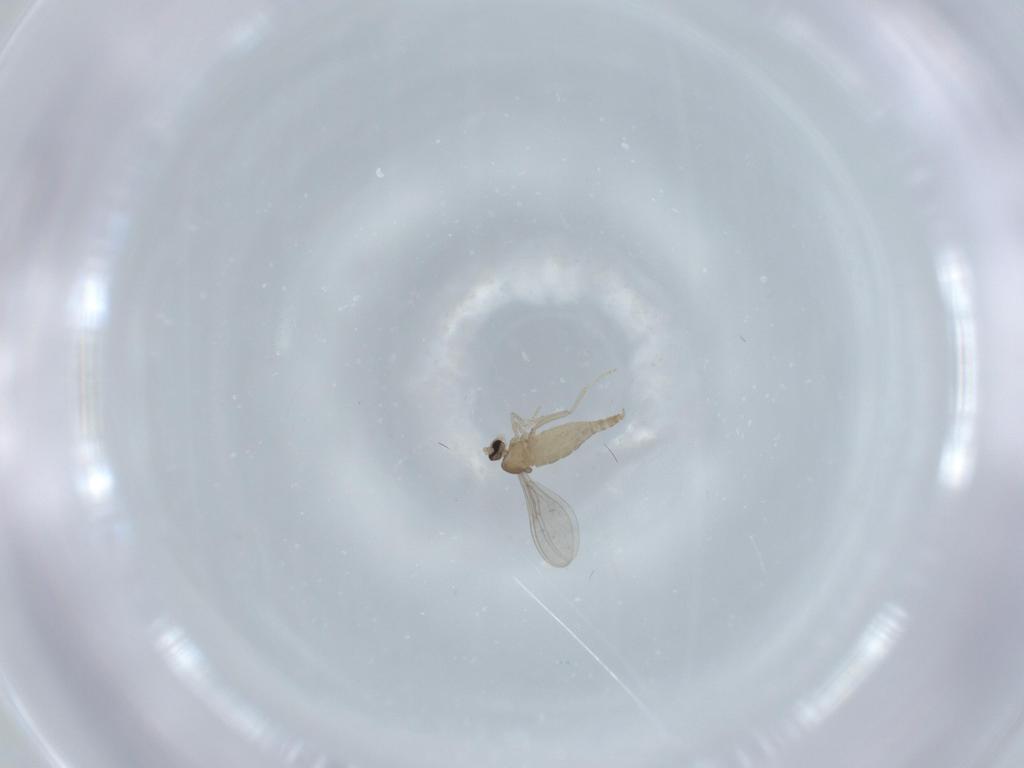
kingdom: Animalia
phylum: Arthropoda
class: Insecta
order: Diptera
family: Cecidomyiidae
